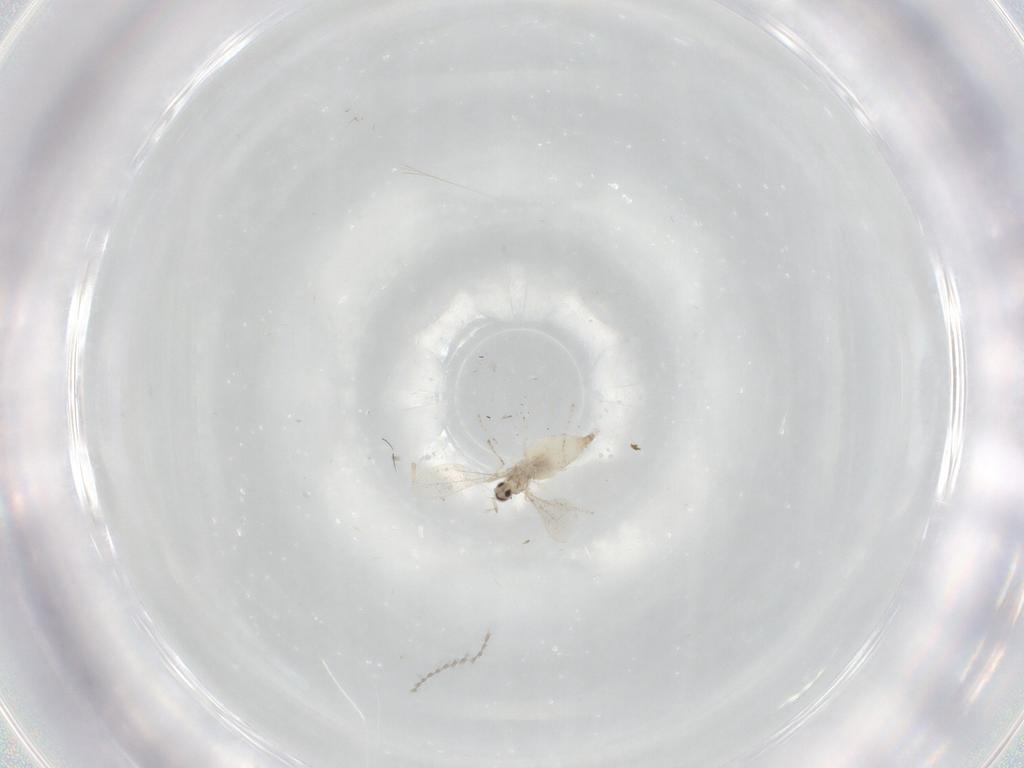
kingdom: Animalia
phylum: Arthropoda
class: Insecta
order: Diptera
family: Cecidomyiidae
